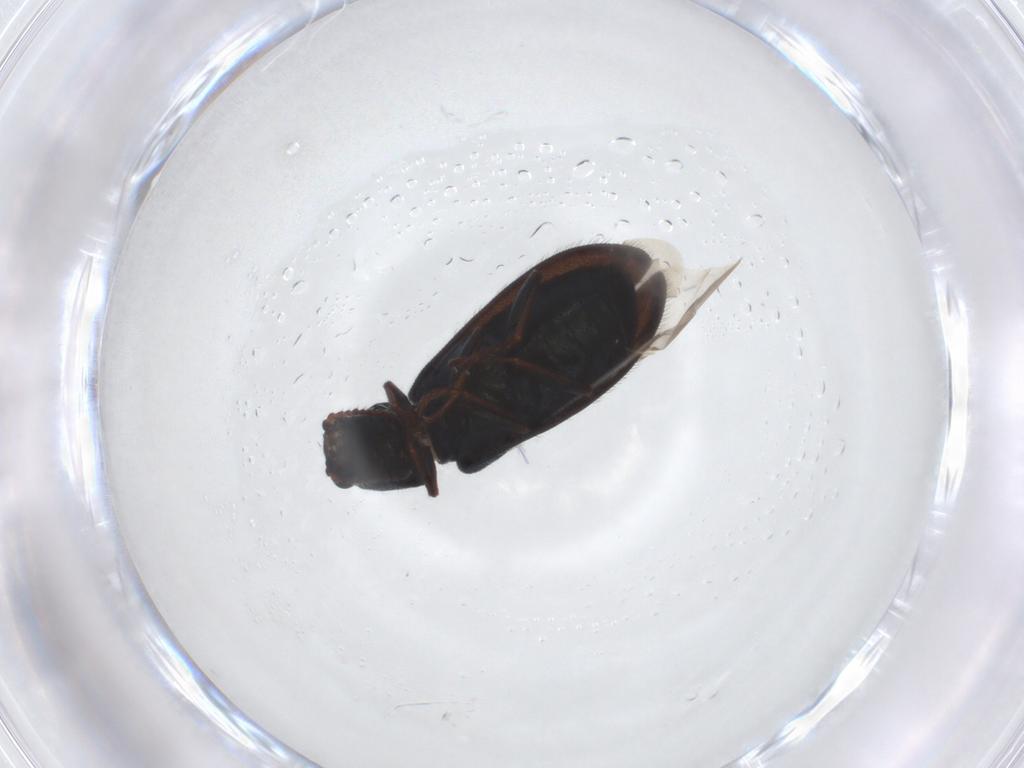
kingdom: Animalia
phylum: Arthropoda
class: Insecta
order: Coleoptera
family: Melyridae
